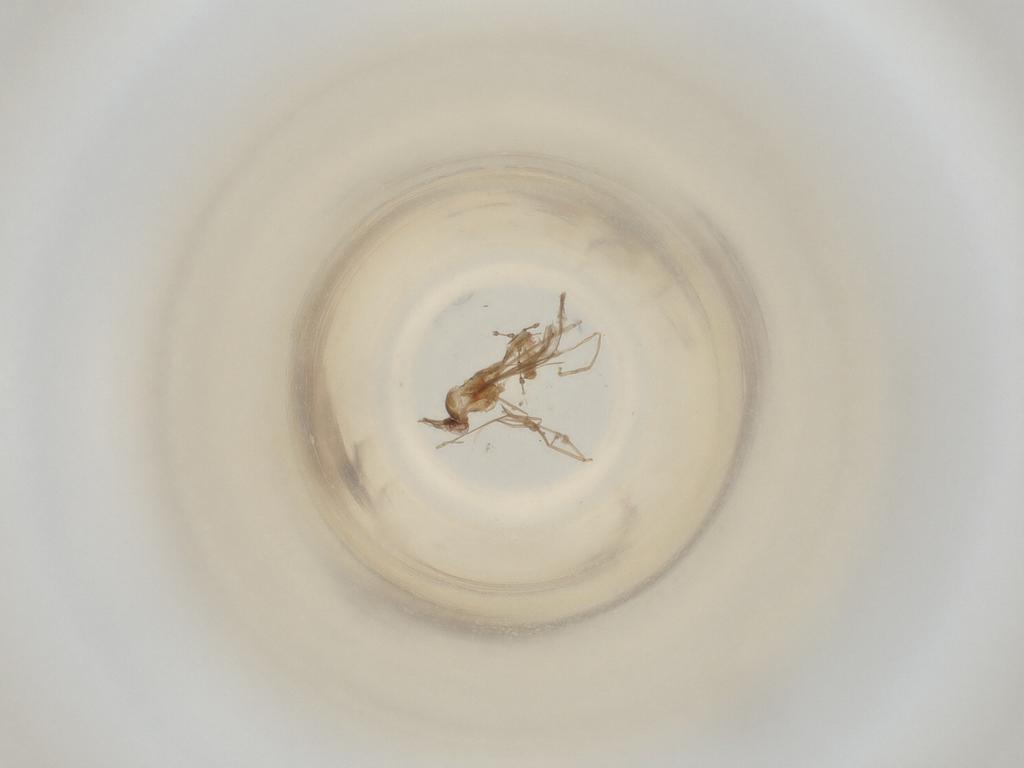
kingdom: Animalia
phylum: Arthropoda
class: Insecta
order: Diptera
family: Cecidomyiidae
